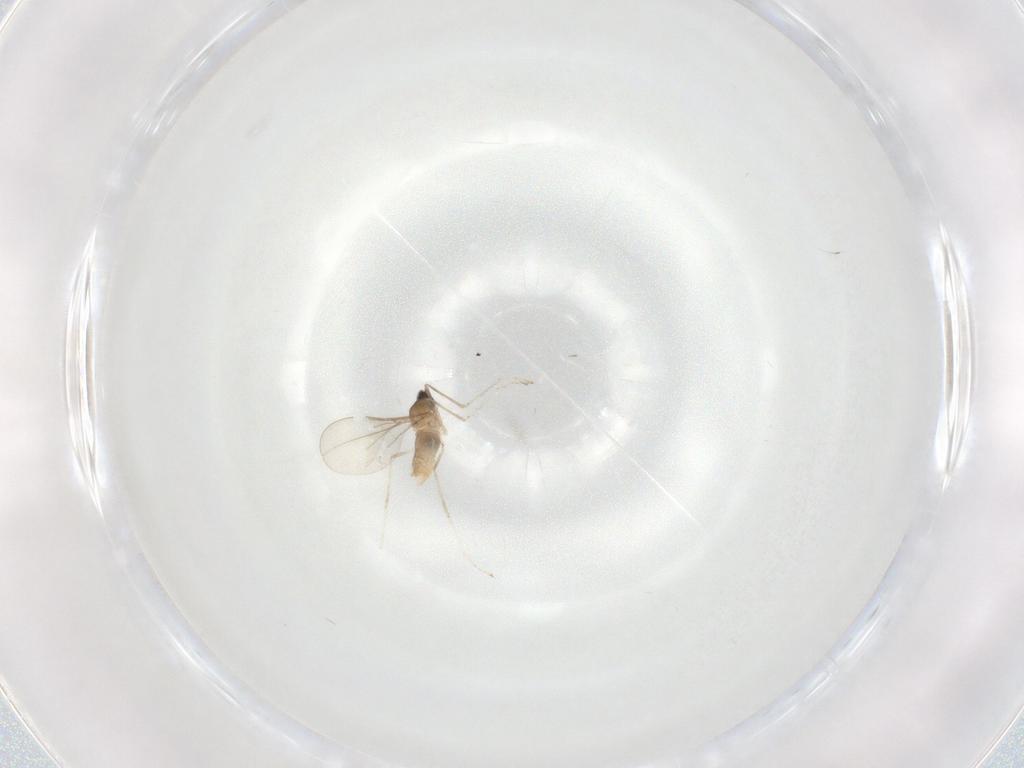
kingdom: Animalia
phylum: Arthropoda
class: Insecta
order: Diptera
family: Cecidomyiidae
